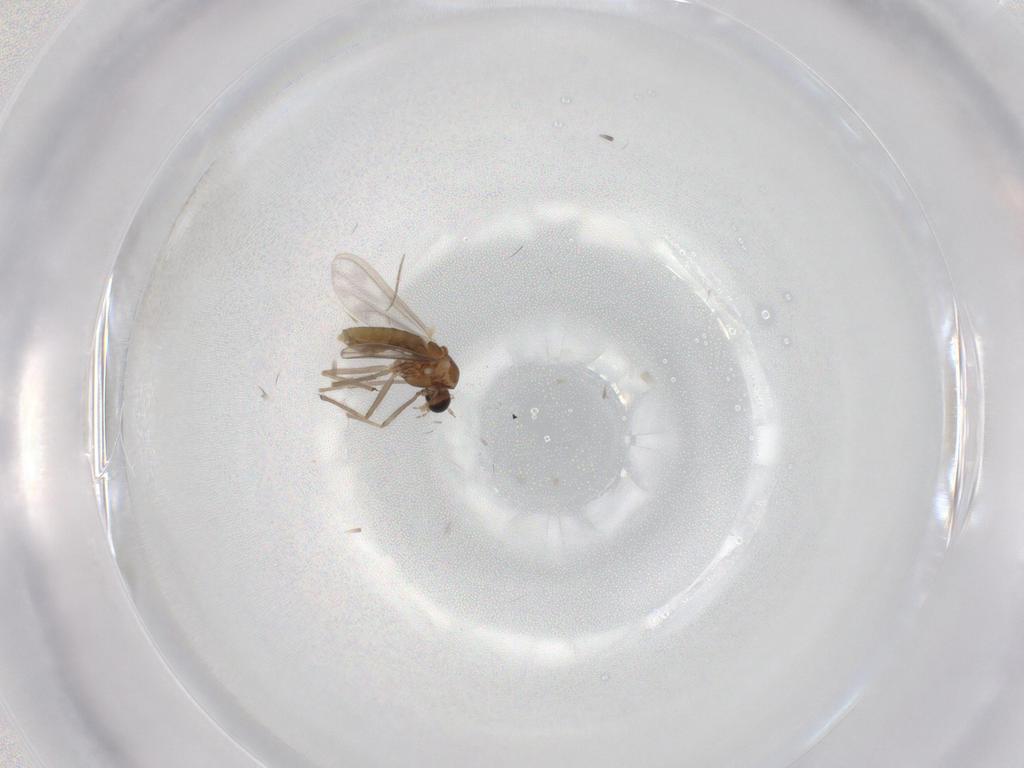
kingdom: Animalia
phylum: Arthropoda
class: Insecta
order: Diptera
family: Chironomidae
